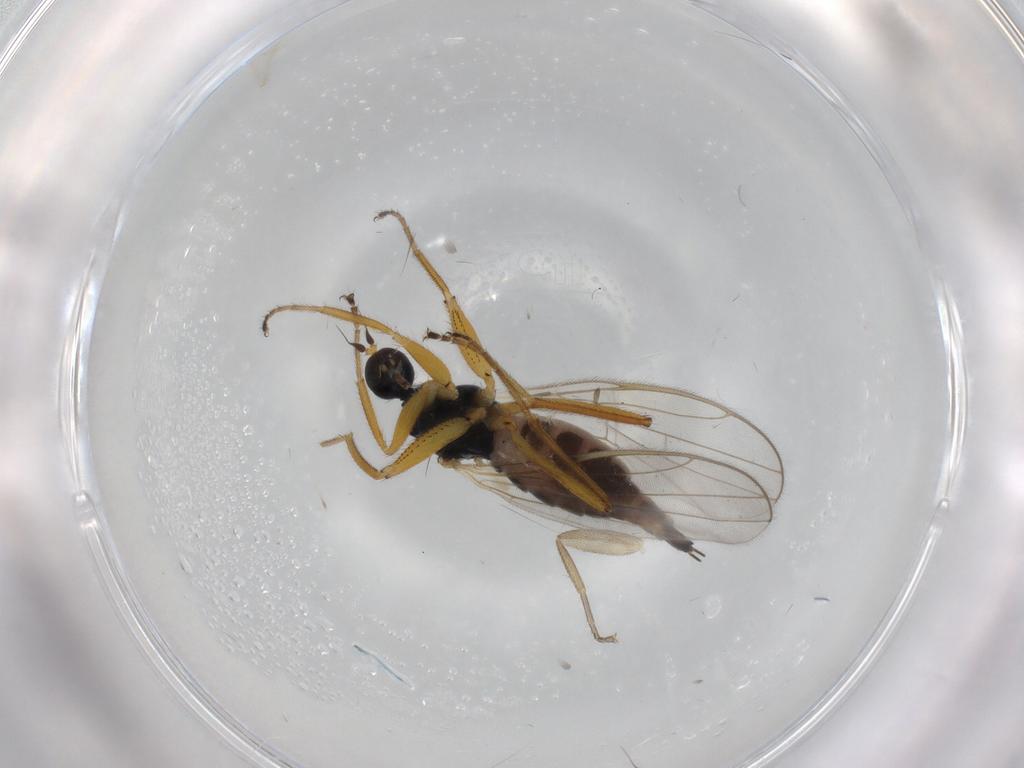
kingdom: Animalia
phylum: Arthropoda
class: Insecta
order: Diptera
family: Hybotidae
